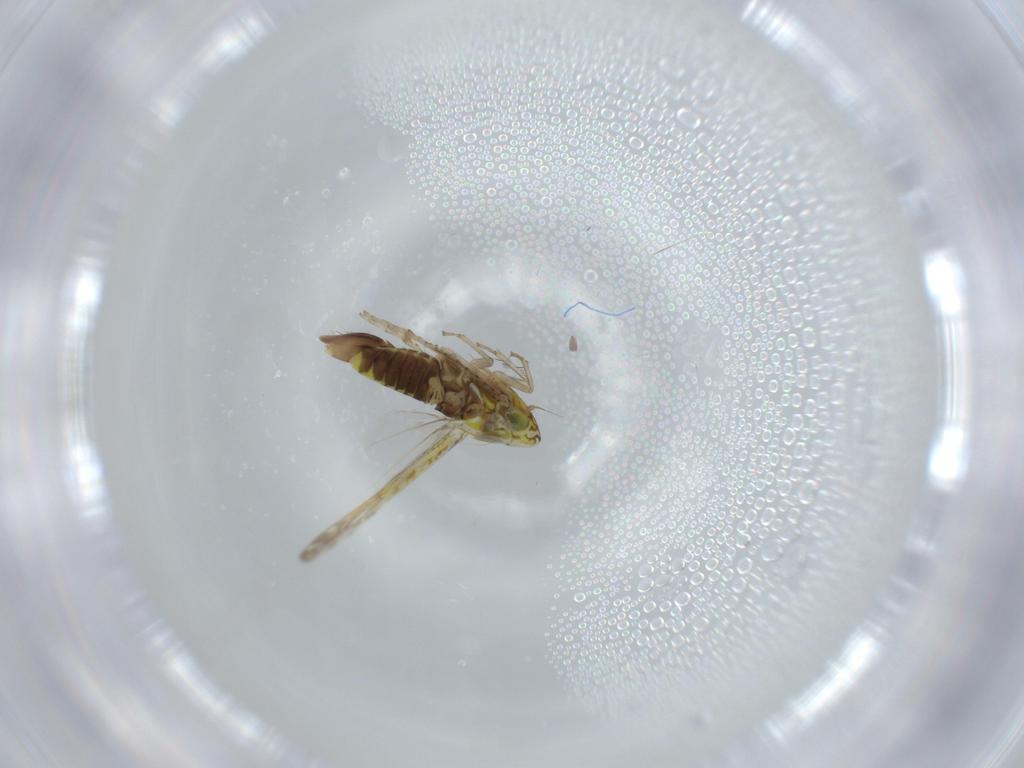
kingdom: Animalia
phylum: Arthropoda
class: Insecta
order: Hemiptera
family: Cicadellidae
